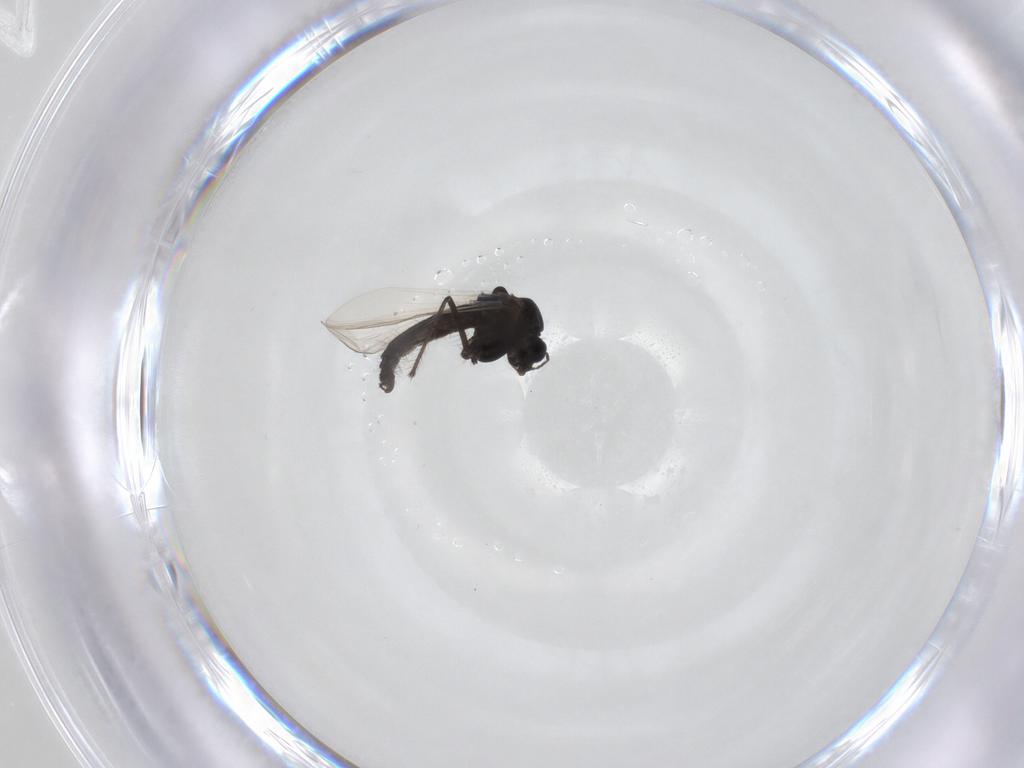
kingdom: Animalia
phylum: Arthropoda
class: Insecta
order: Diptera
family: Chironomidae
